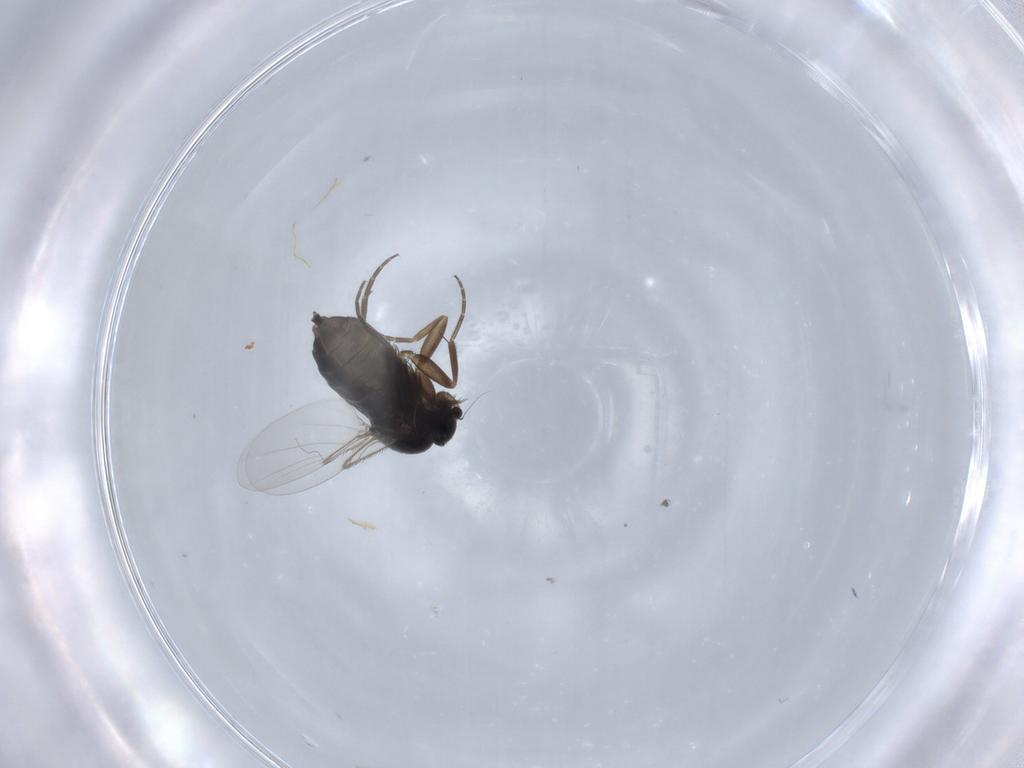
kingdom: Animalia
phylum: Arthropoda
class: Insecta
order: Diptera
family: Phoridae
